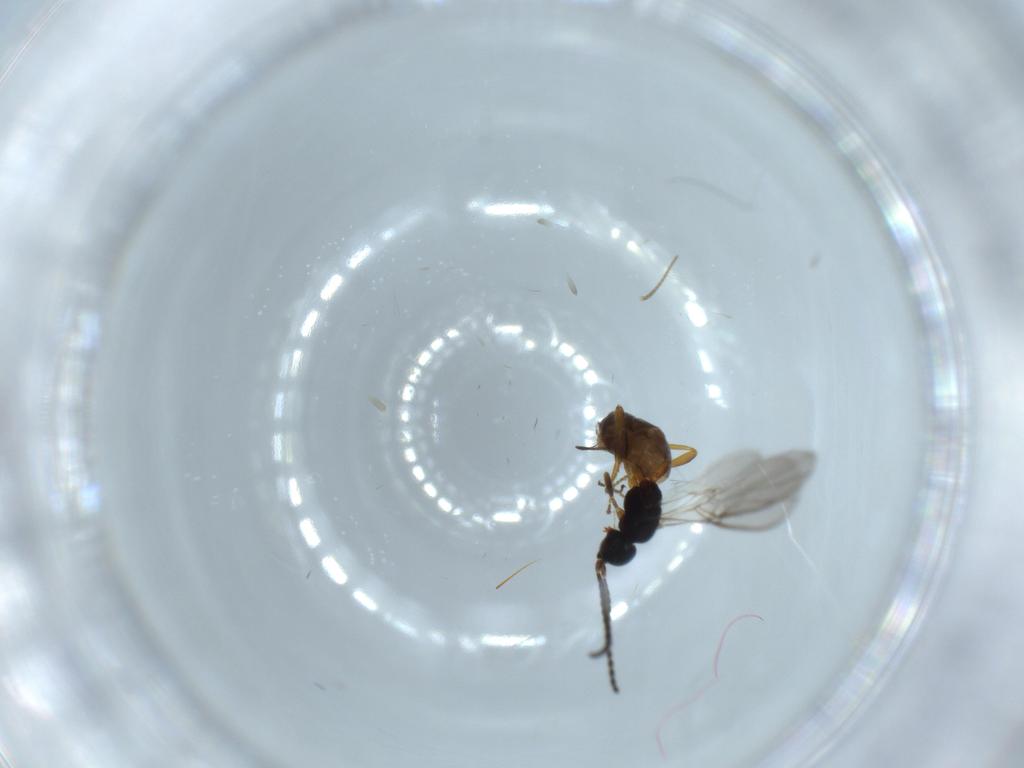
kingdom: Animalia
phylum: Arthropoda
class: Insecta
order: Hymenoptera
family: Braconidae
